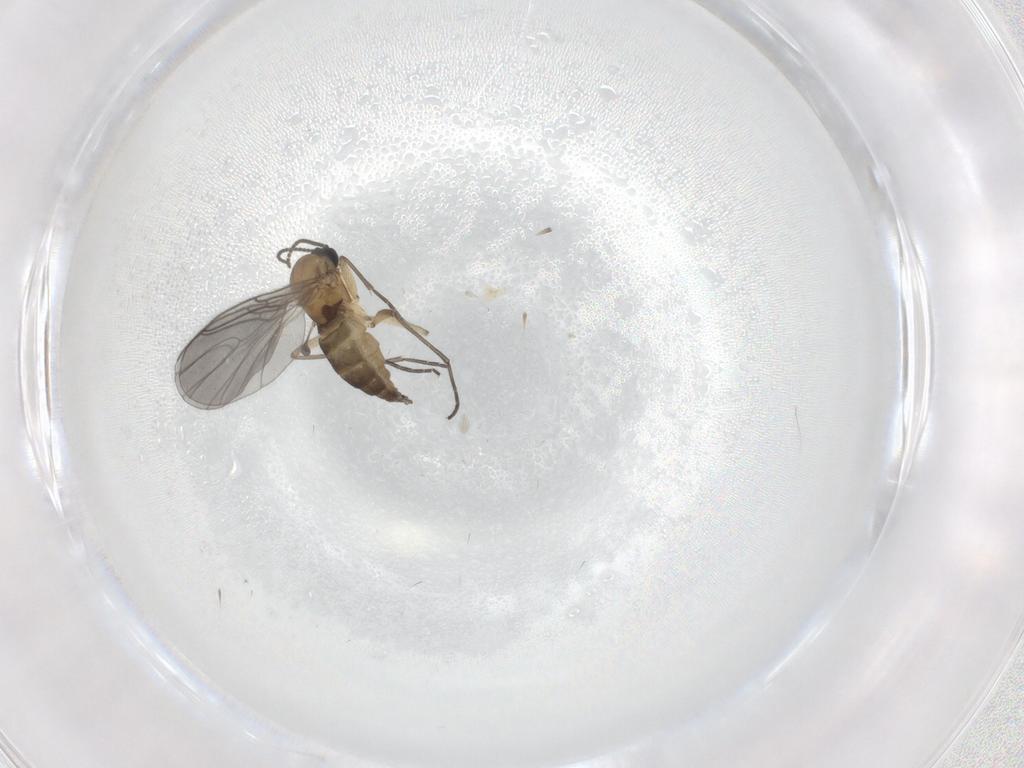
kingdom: Animalia
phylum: Arthropoda
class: Insecta
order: Diptera
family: Sciaridae
